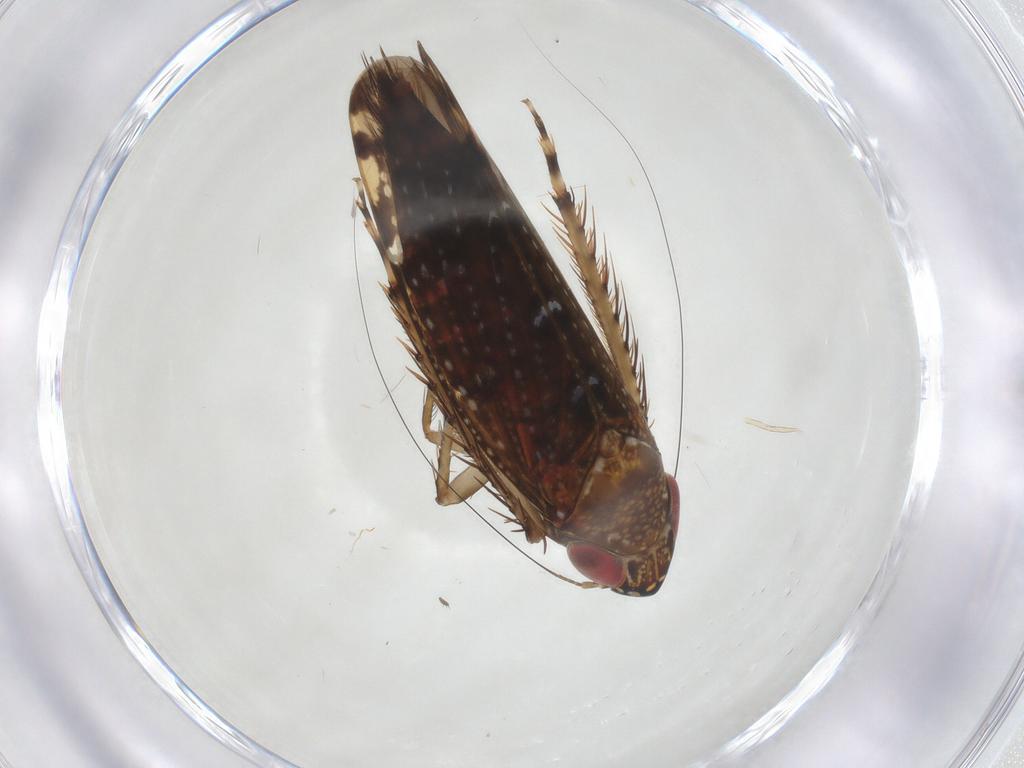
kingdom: Animalia
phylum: Arthropoda
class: Insecta
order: Hemiptera
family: Cicadellidae
